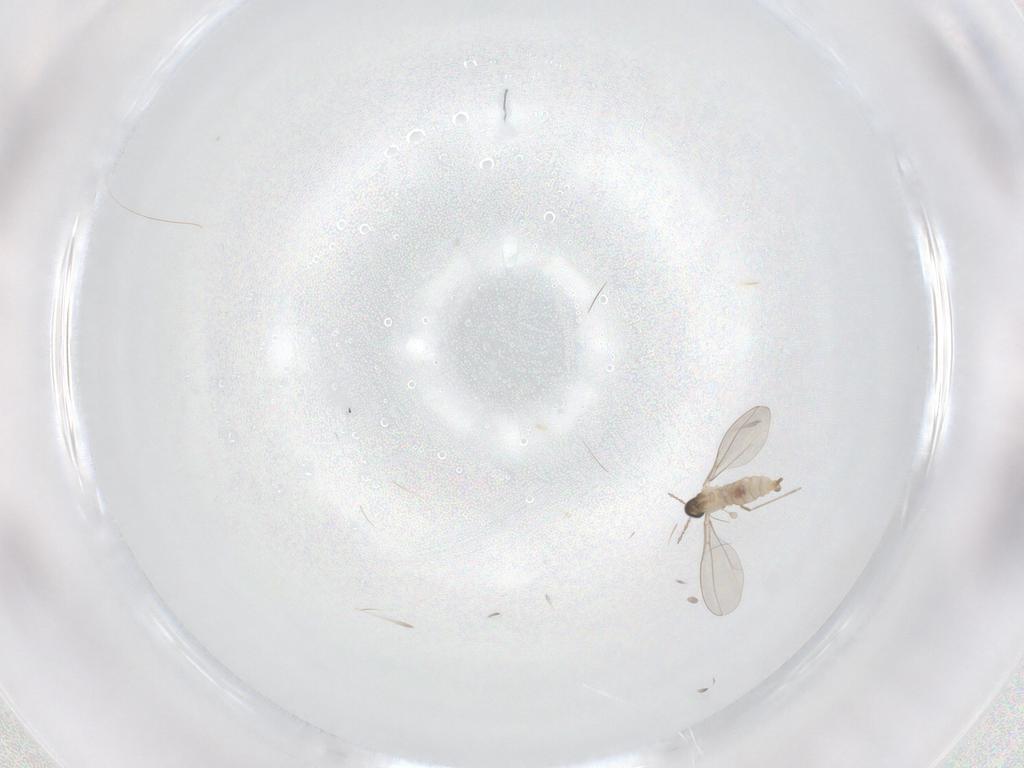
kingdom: Animalia
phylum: Arthropoda
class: Insecta
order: Diptera
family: Cecidomyiidae
